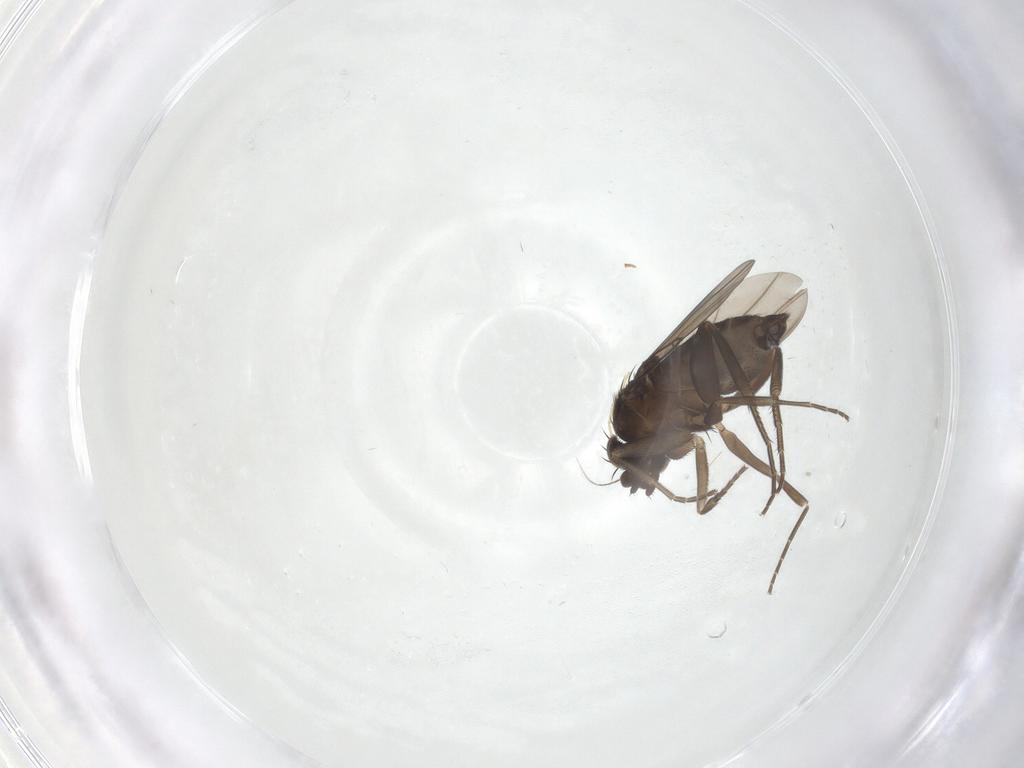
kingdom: Animalia
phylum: Arthropoda
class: Insecta
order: Diptera
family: Phoridae
